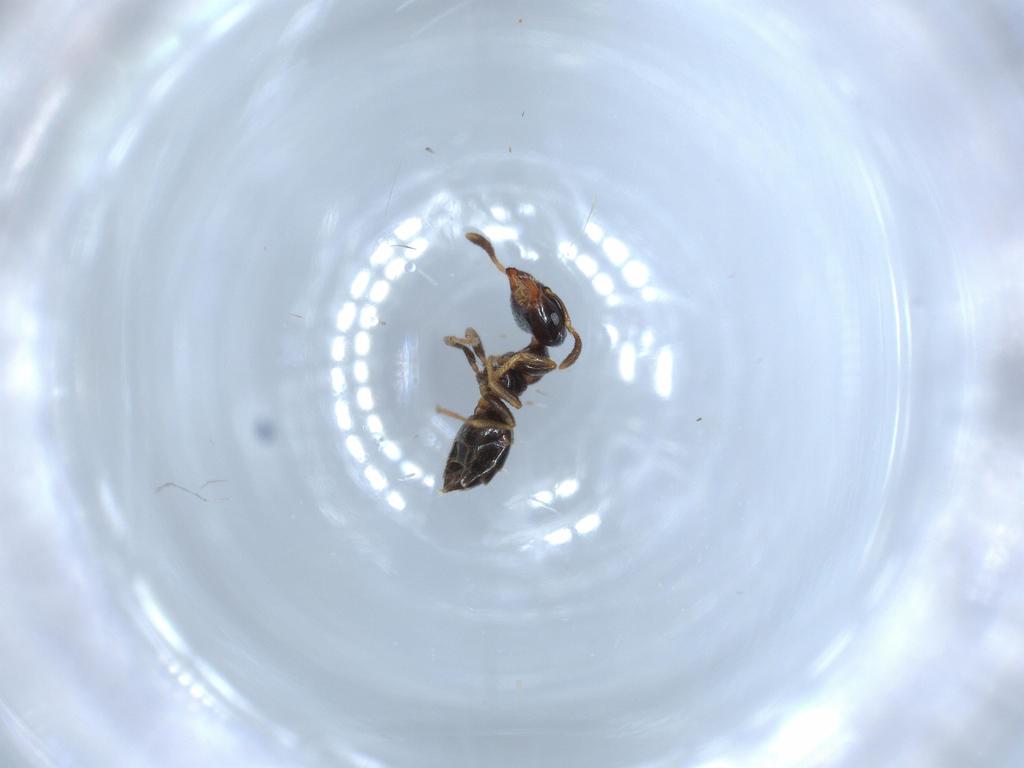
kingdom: Animalia
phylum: Arthropoda
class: Insecta
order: Hymenoptera
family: Formicidae
